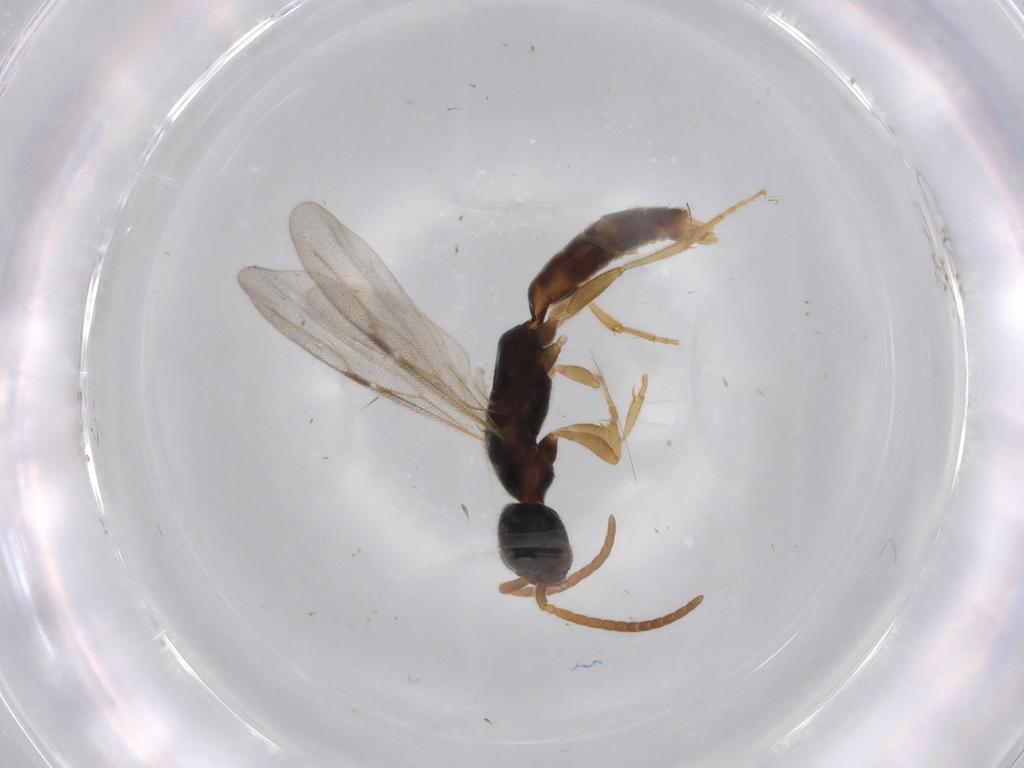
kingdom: Animalia
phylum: Arthropoda
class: Insecta
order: Hymenoptera
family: Bethylidae
